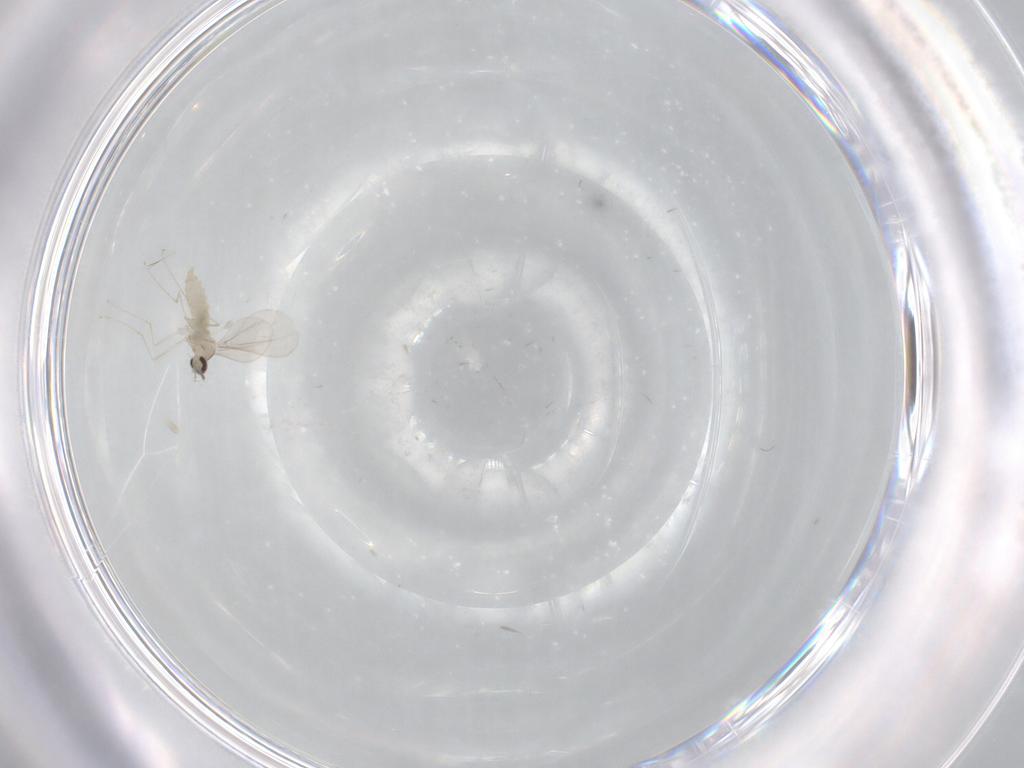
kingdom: Animalia
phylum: Arthropoda
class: Insecta
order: Diptera
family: Cecidomyiidae
